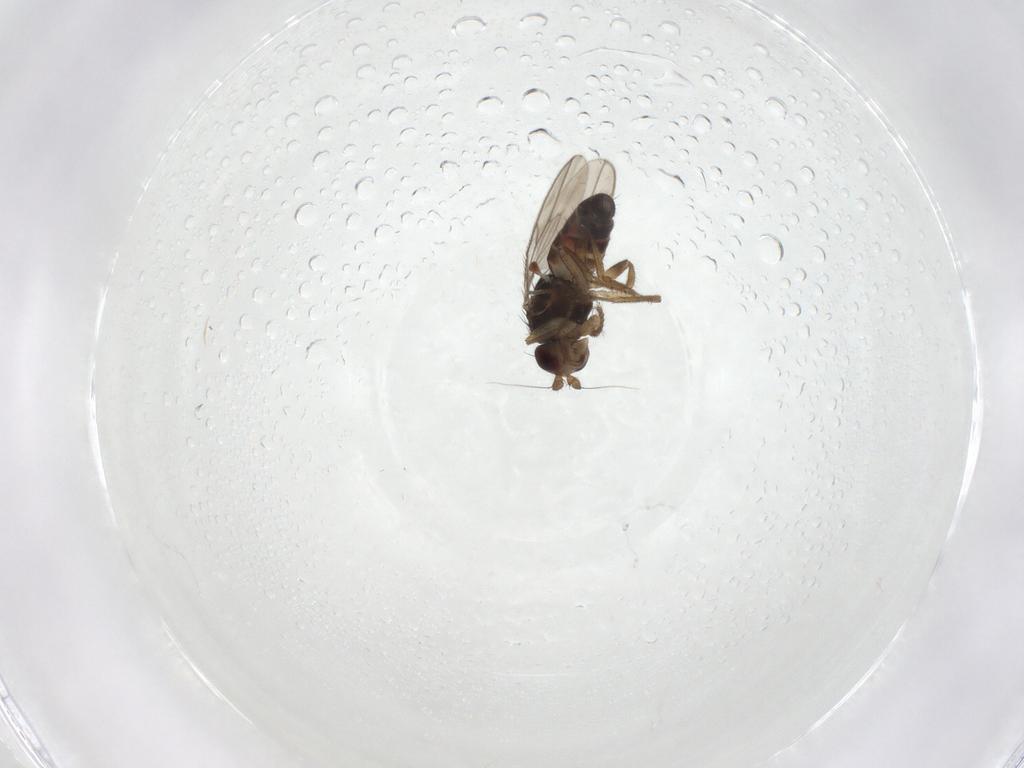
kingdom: Animalia
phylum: Arthropoda
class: Insecta
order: Diptera
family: Sphaeroceridae
